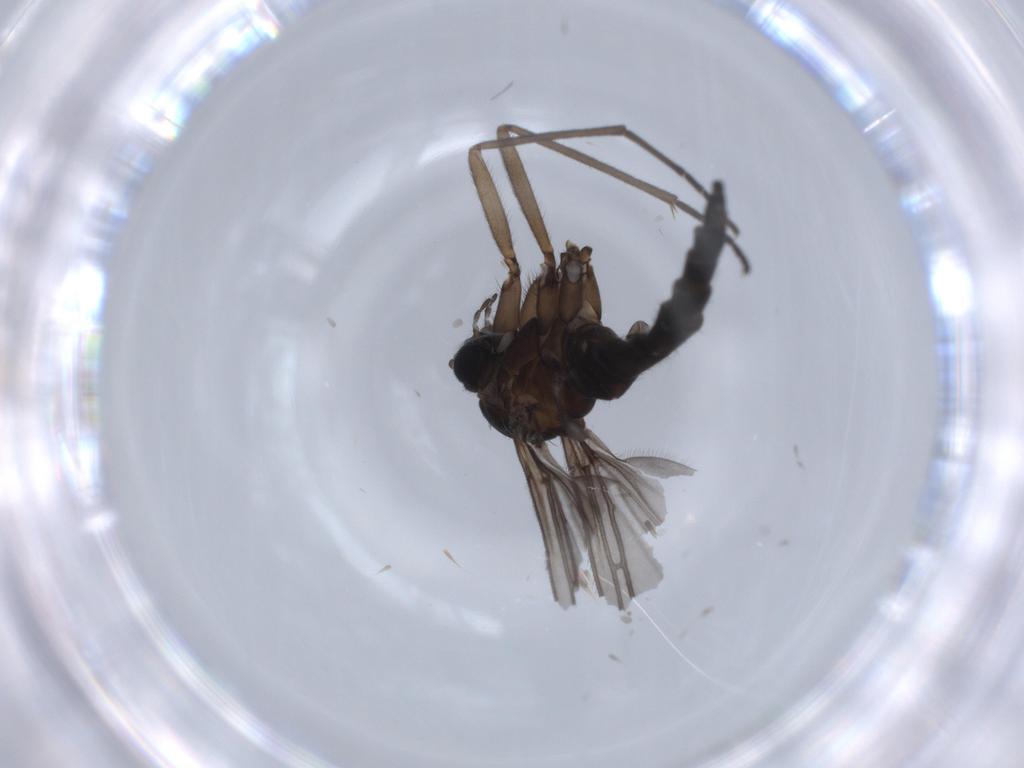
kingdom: Animalia
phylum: Arthropoda
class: Insecta
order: Diptera
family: Sciaridae
